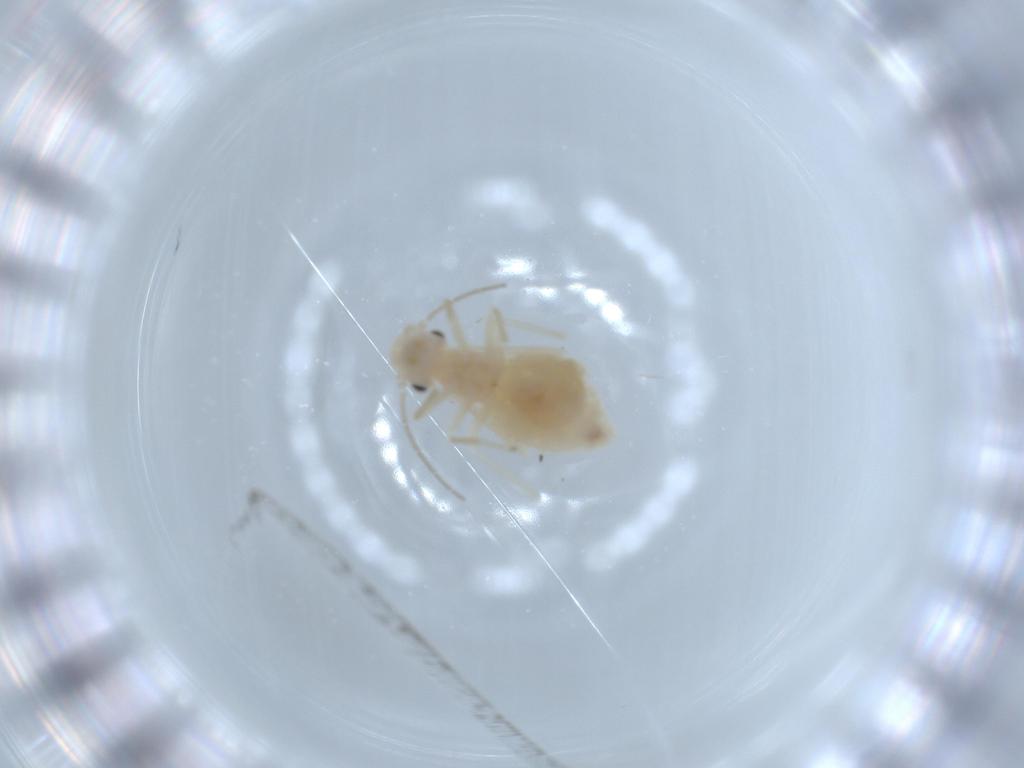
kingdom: Animalia
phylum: Arthropoda
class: Insecta
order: Psocodea
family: Caeciliusidae
